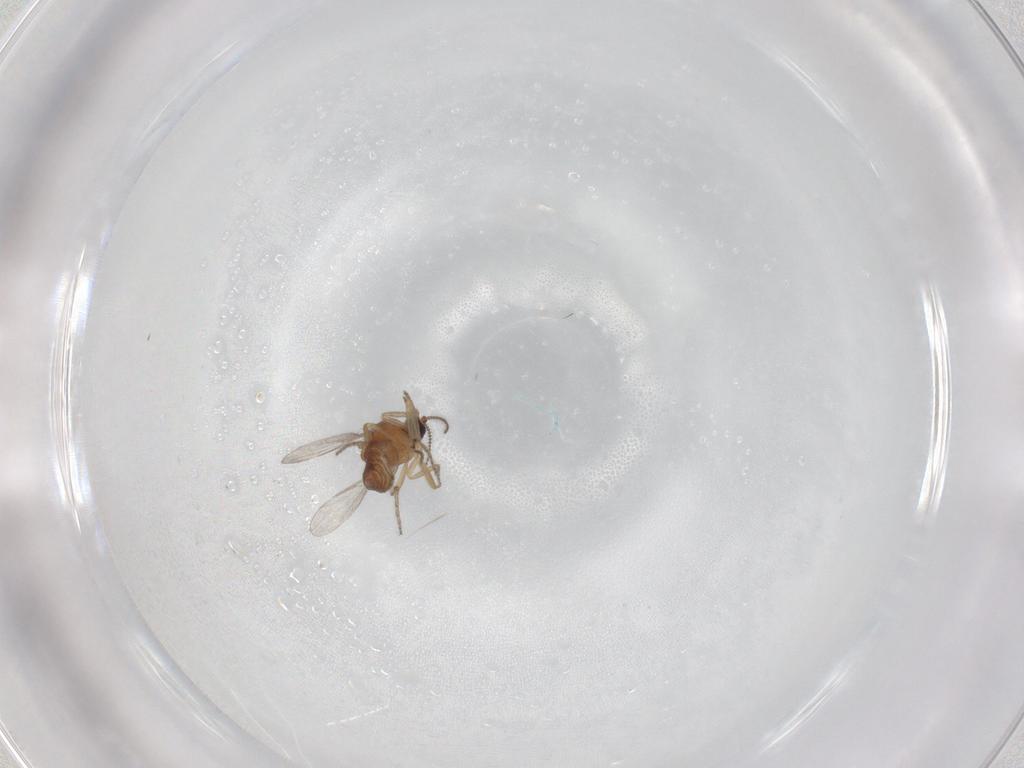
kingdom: Animalia
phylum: Arthropoda
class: Insecta
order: Diptera
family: Ceratopogonidae
